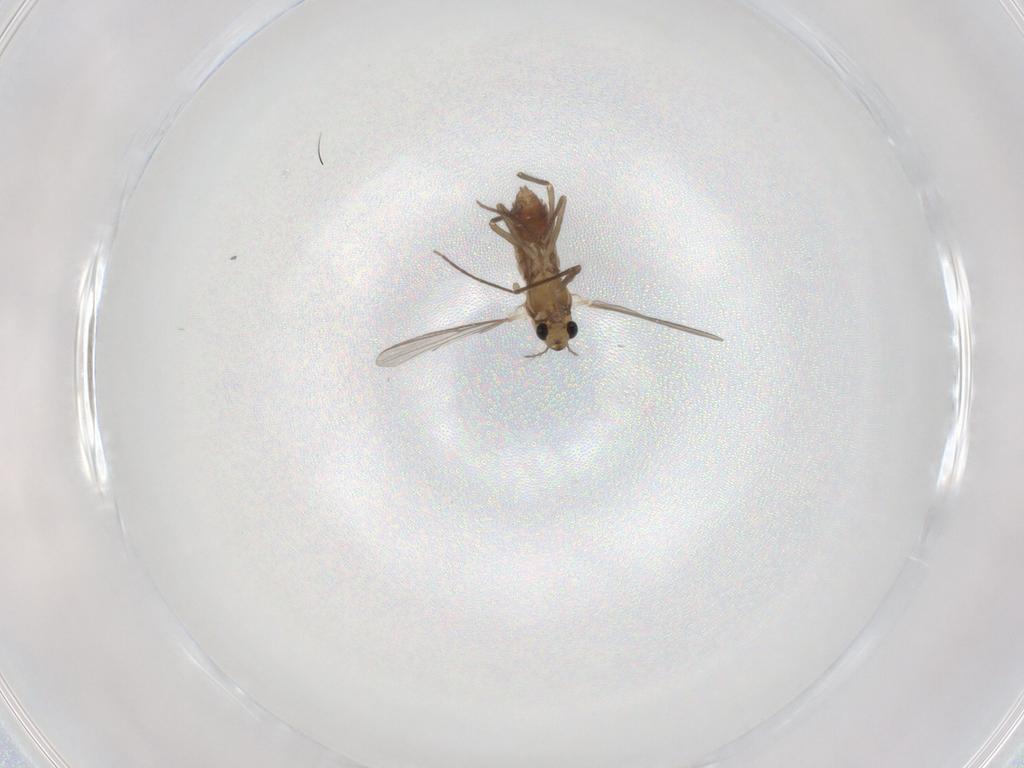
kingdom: Animalia
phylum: Arthropoda
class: Insecta
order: Diptera
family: Chironomidae
